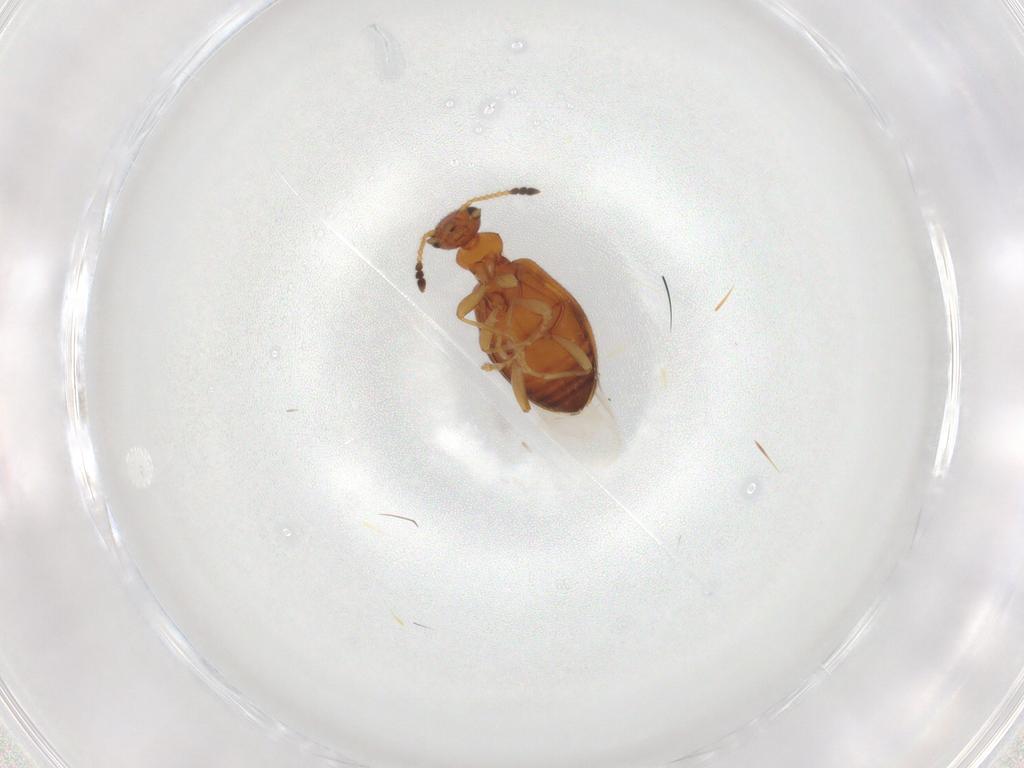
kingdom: Animalia
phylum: Arthropoda
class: Insecta
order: Coleoptera
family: Anthicidae
